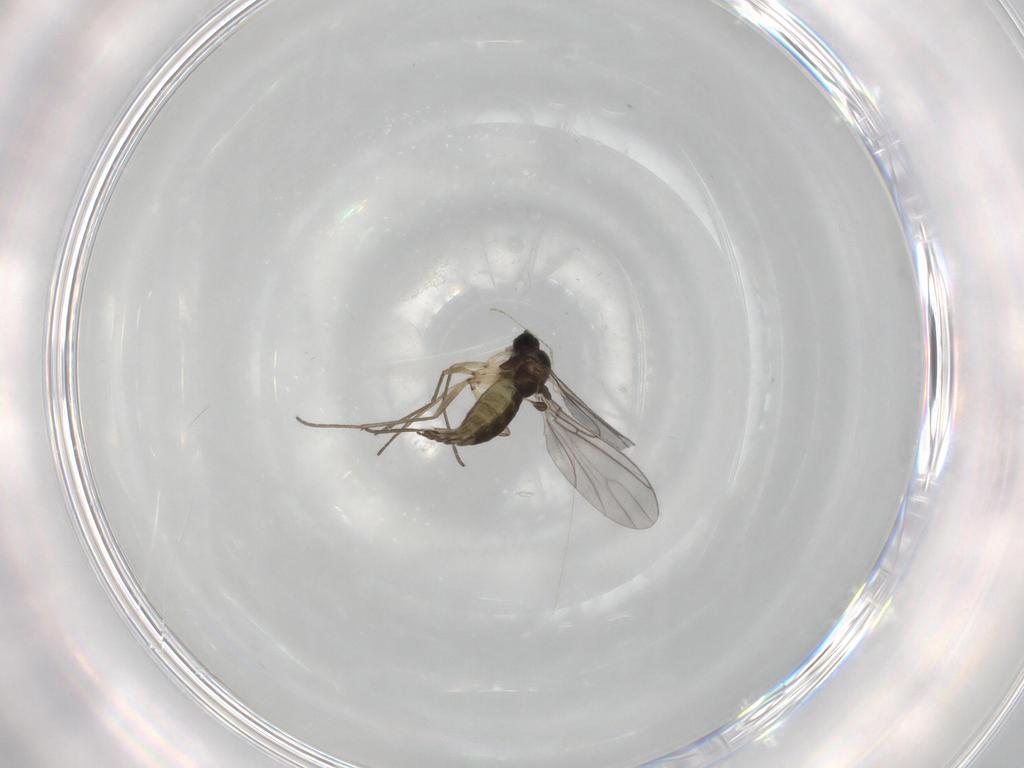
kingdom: Animalia
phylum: Arthropoda
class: Insecta
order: Diptera
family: Sciaridae
